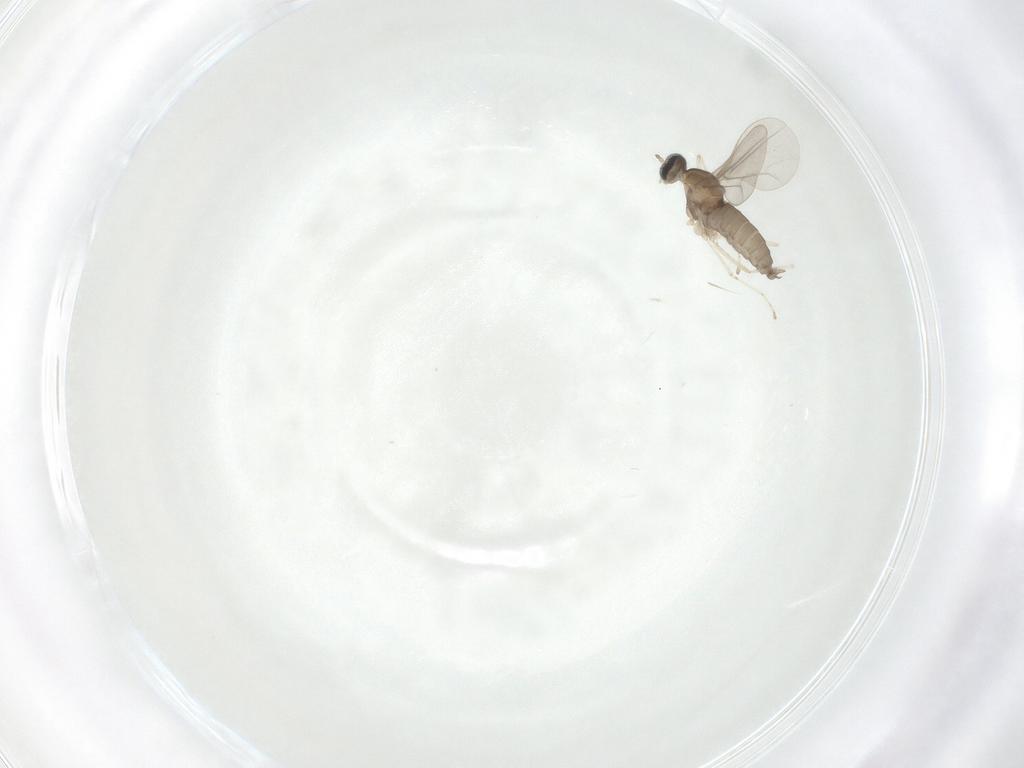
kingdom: Animalia
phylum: Arthropoda
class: Insecta
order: Diptera
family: Cecidomyiidae
